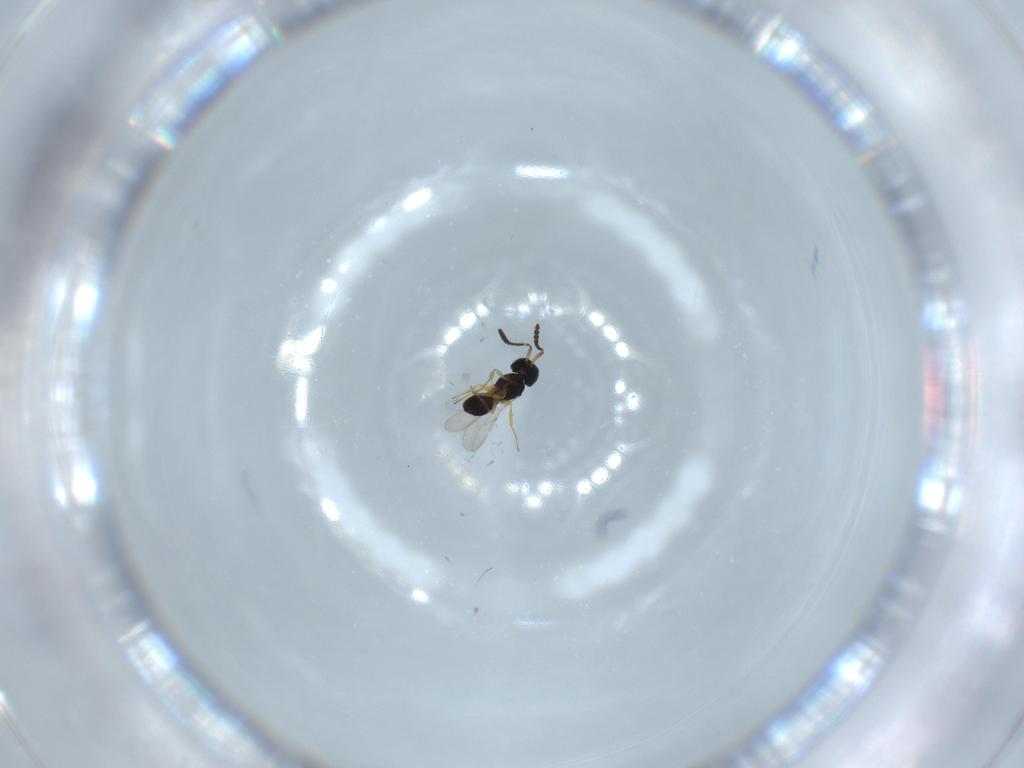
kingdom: Animalia
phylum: Arthropoda
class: Insecta
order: Hymenoptera
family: Scelionidae
